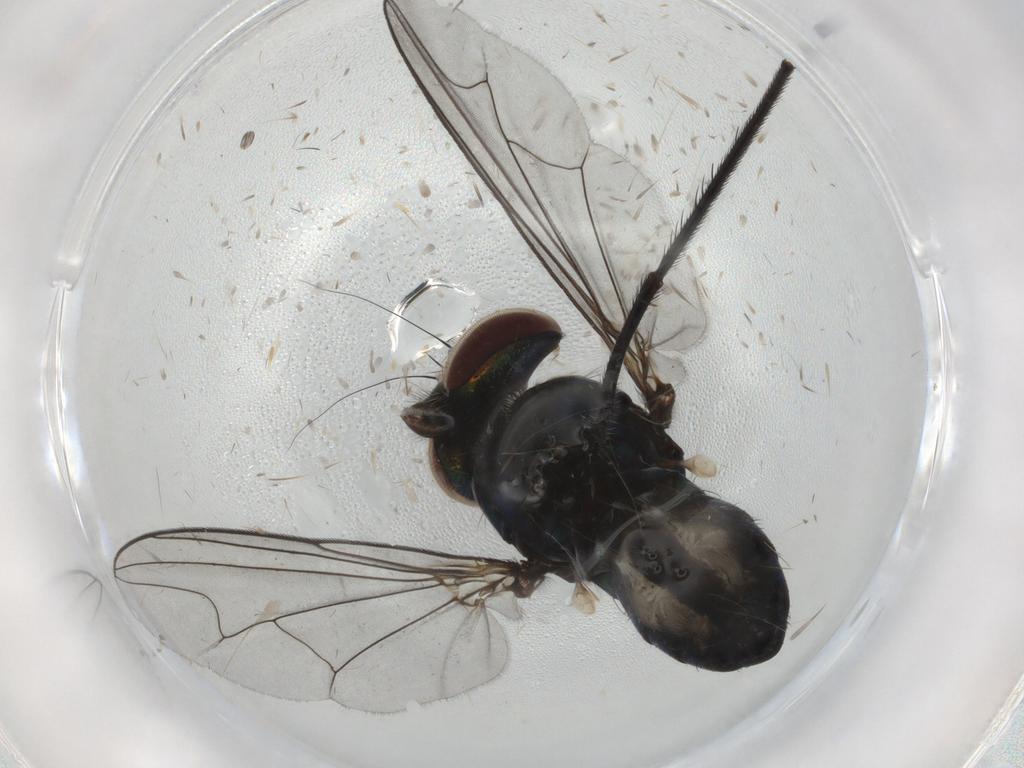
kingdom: Animalia
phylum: Arthropoda
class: Insecta
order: Diptera
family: Dolichopodidae
